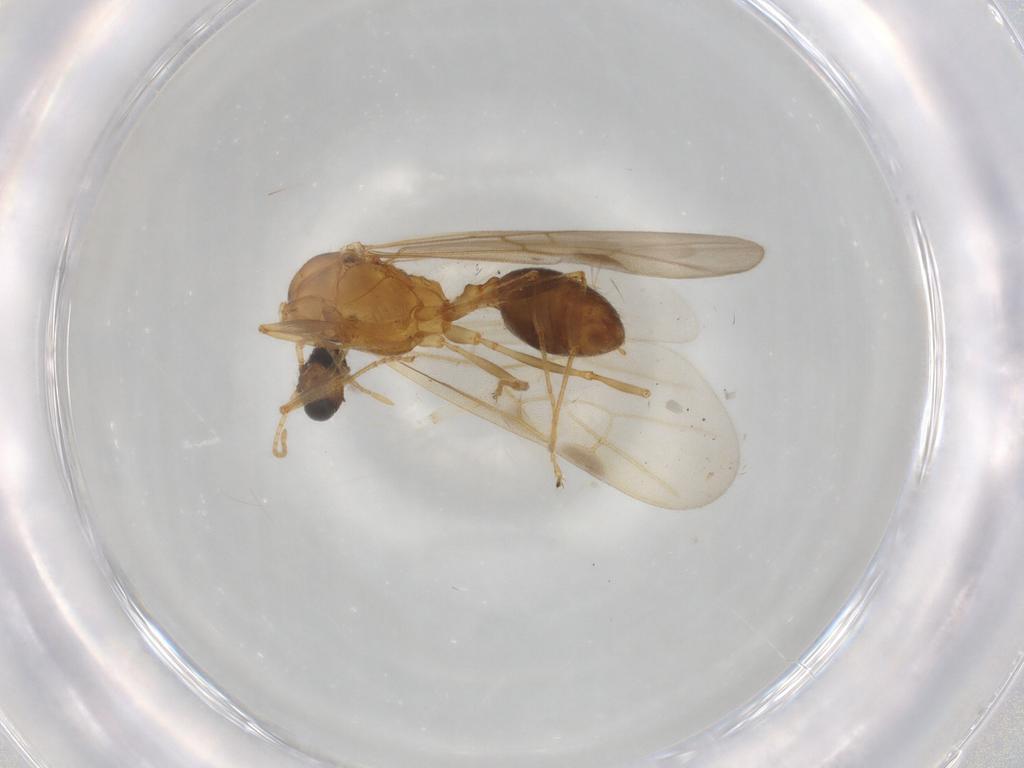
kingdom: Animalia
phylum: Arthropoda
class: Insecta
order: Hymenoptera
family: Formicidae
